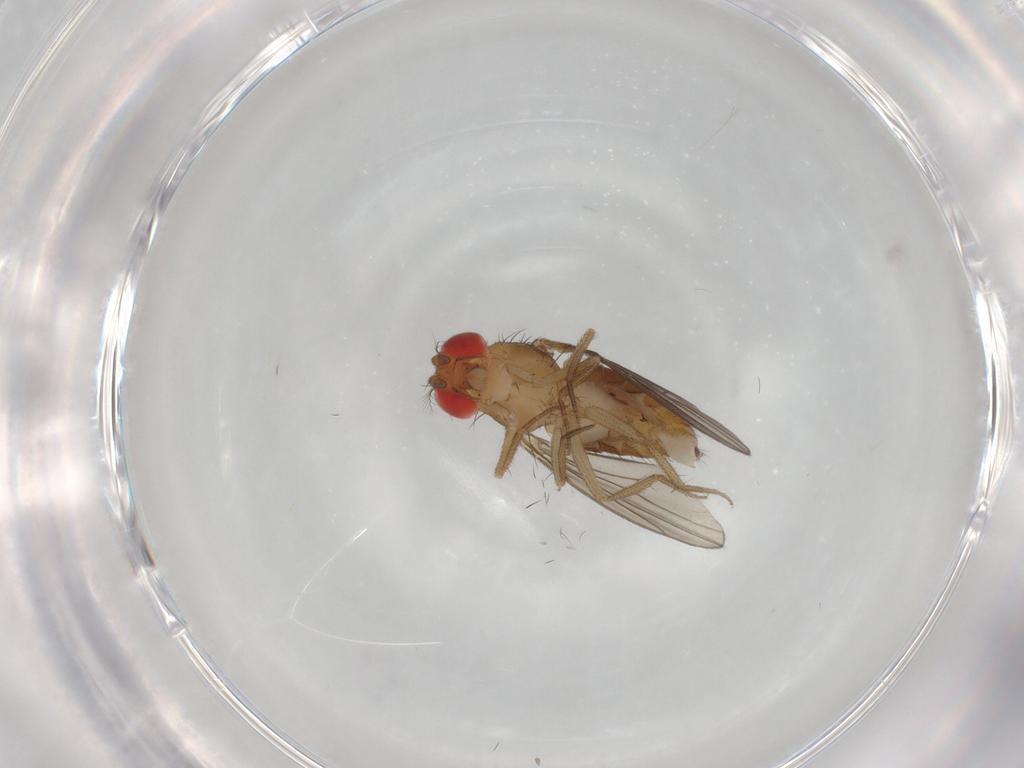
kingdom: Animalia
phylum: Arthropoda
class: Insecta
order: Diptera
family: Drosophilidae
